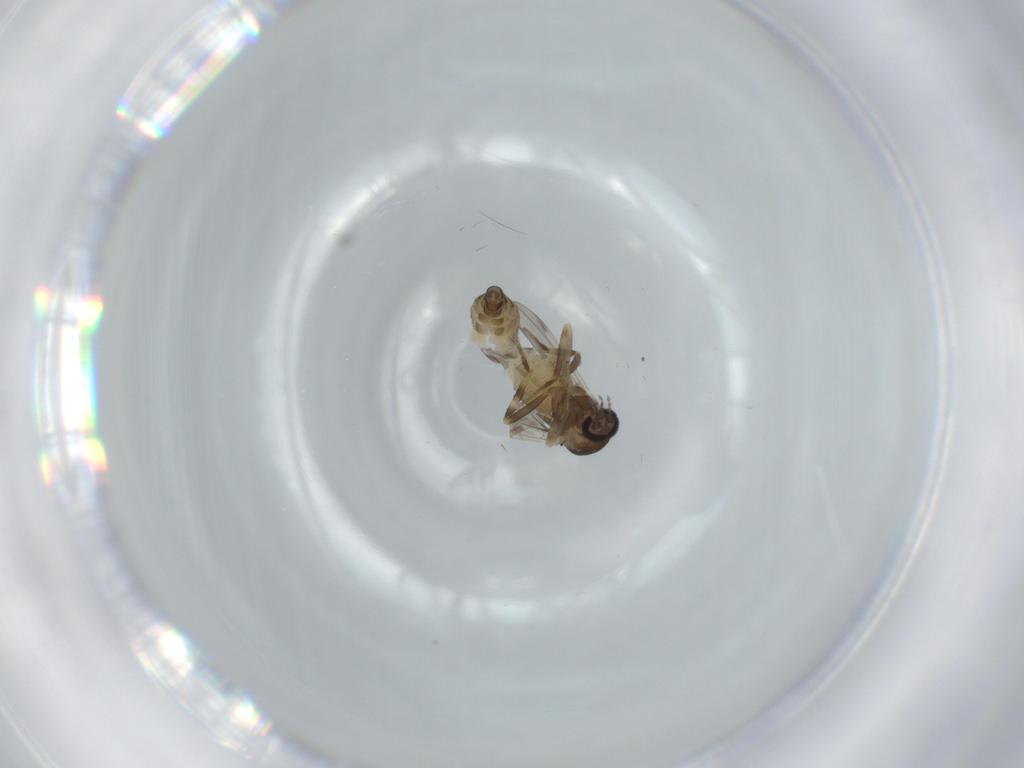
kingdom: Animalia
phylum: Arthropoda
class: Insecta
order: Diptera
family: Ceratopogonidae
